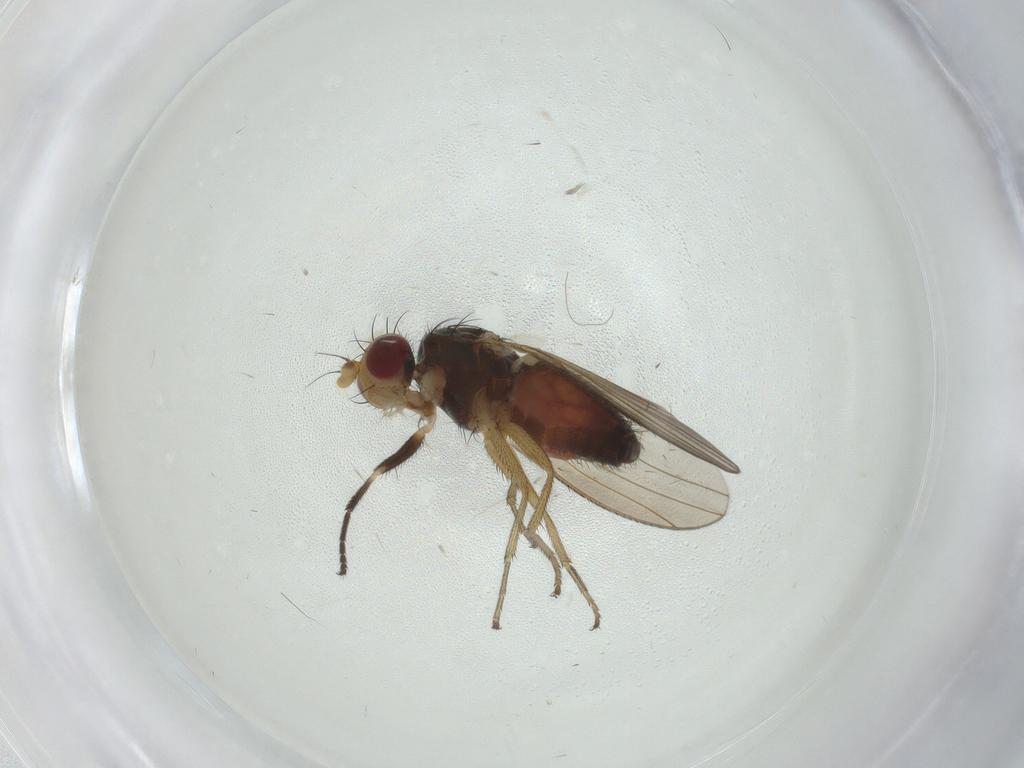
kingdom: Animalia
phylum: Arthropoda
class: Insecta
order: Diptera
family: Heleomyzidae
